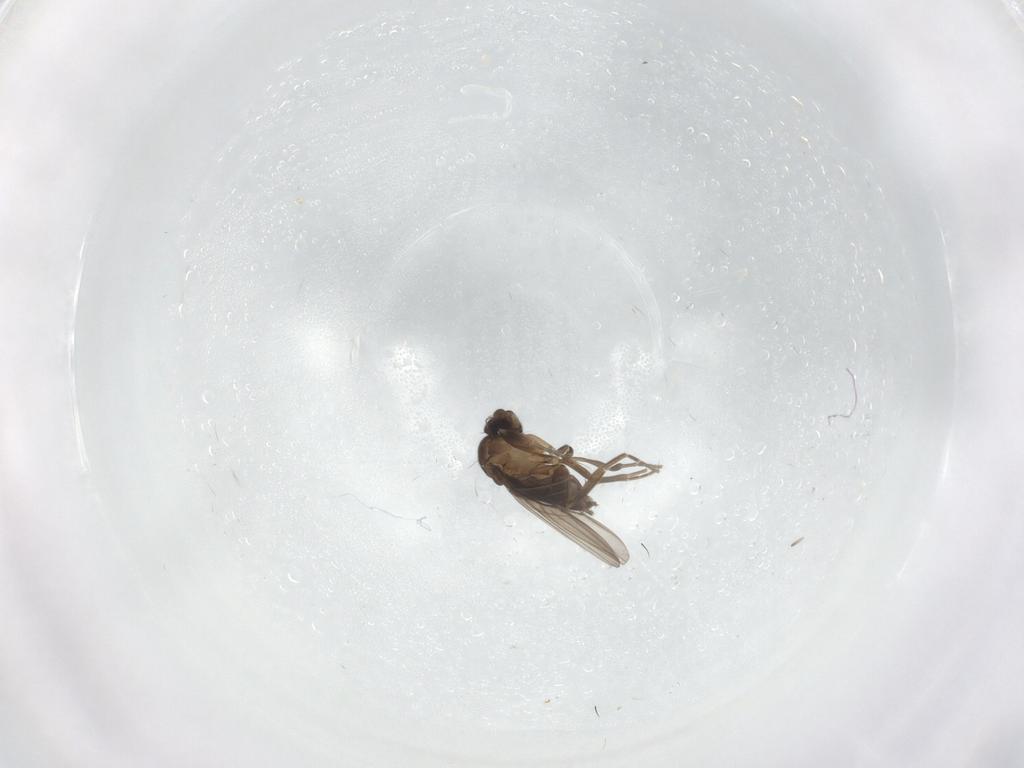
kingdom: Animalia
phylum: Arthropoda
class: Insecta
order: Diptera
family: Phoridae
